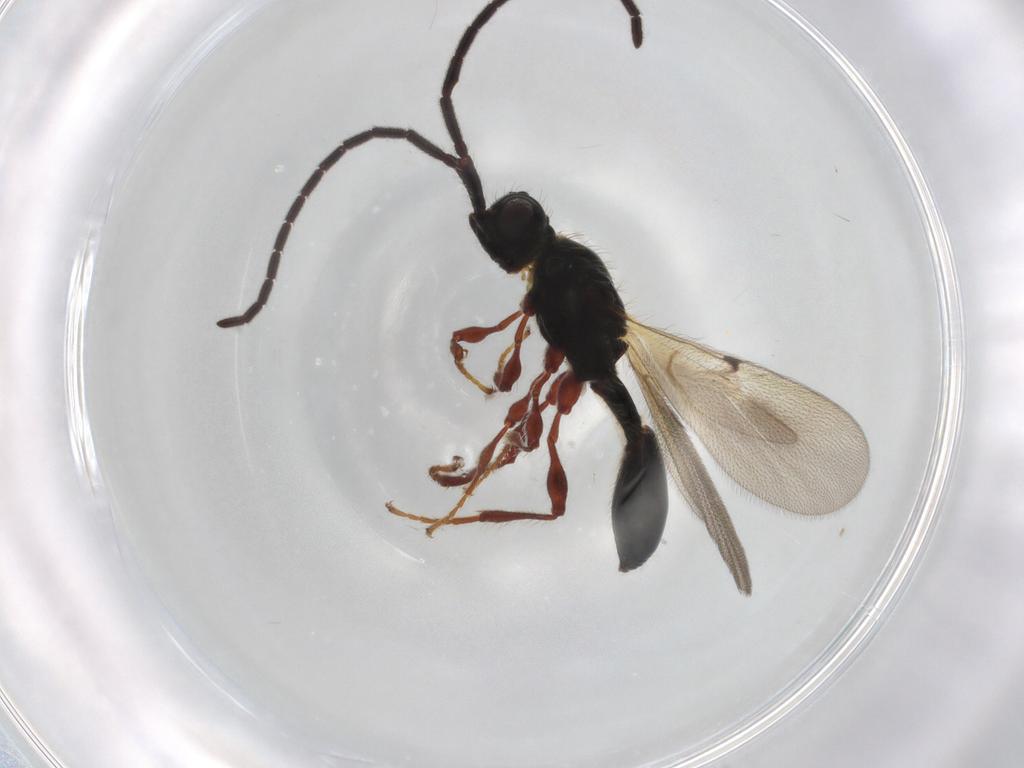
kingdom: Animalia
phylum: Arthropoda
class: Insecta
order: Hymenoptera
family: Diapriidae
